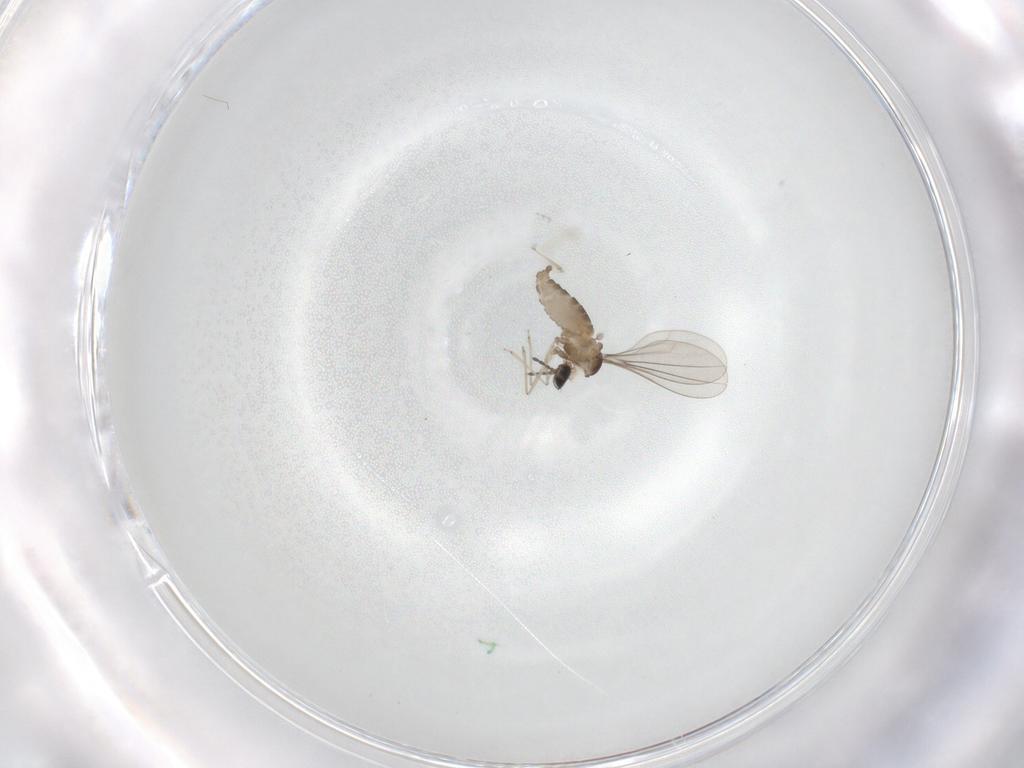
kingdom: Animalia
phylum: Arthropoda
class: Insecta
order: Diptera
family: Cecidomyiidae
